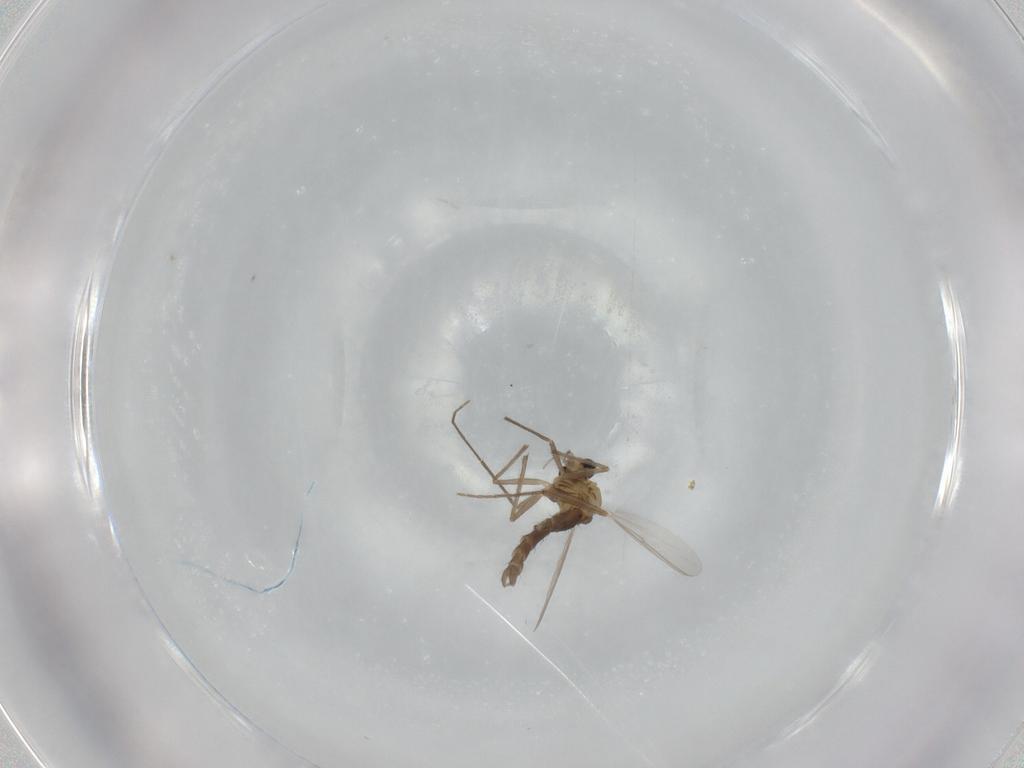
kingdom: Animalia
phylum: Arthropoda
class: Insecta
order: Diptera
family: Chironomidae
